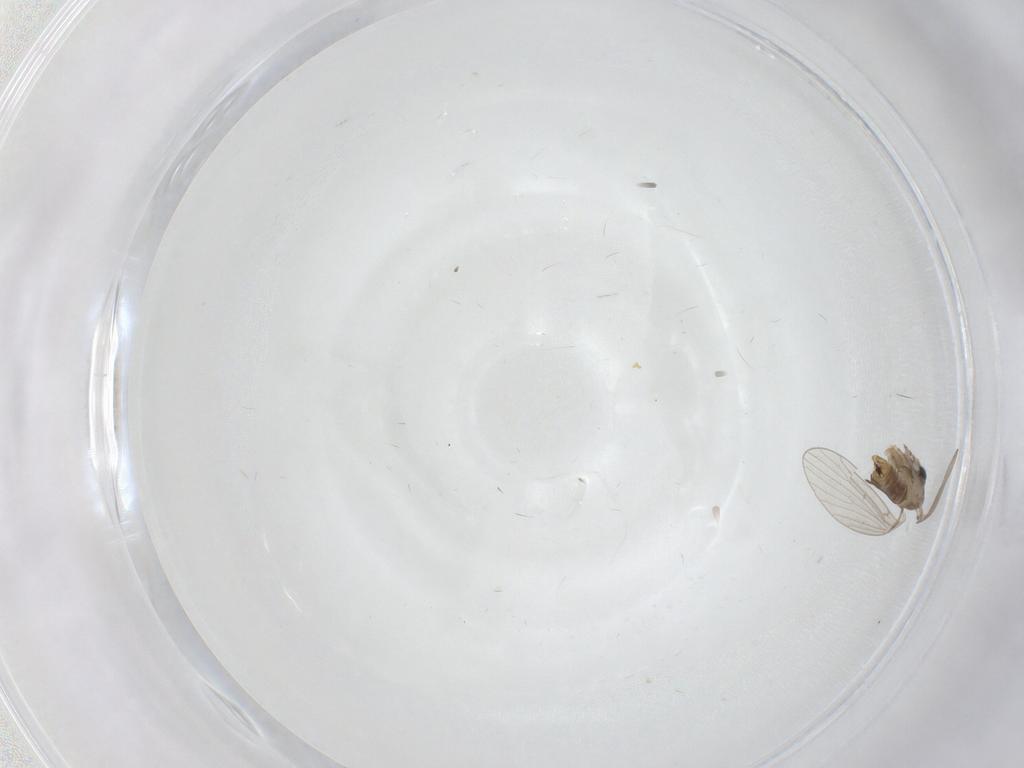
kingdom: Animalia
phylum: Arthropoda
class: Insecta
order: Diptera
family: Psychodidae
